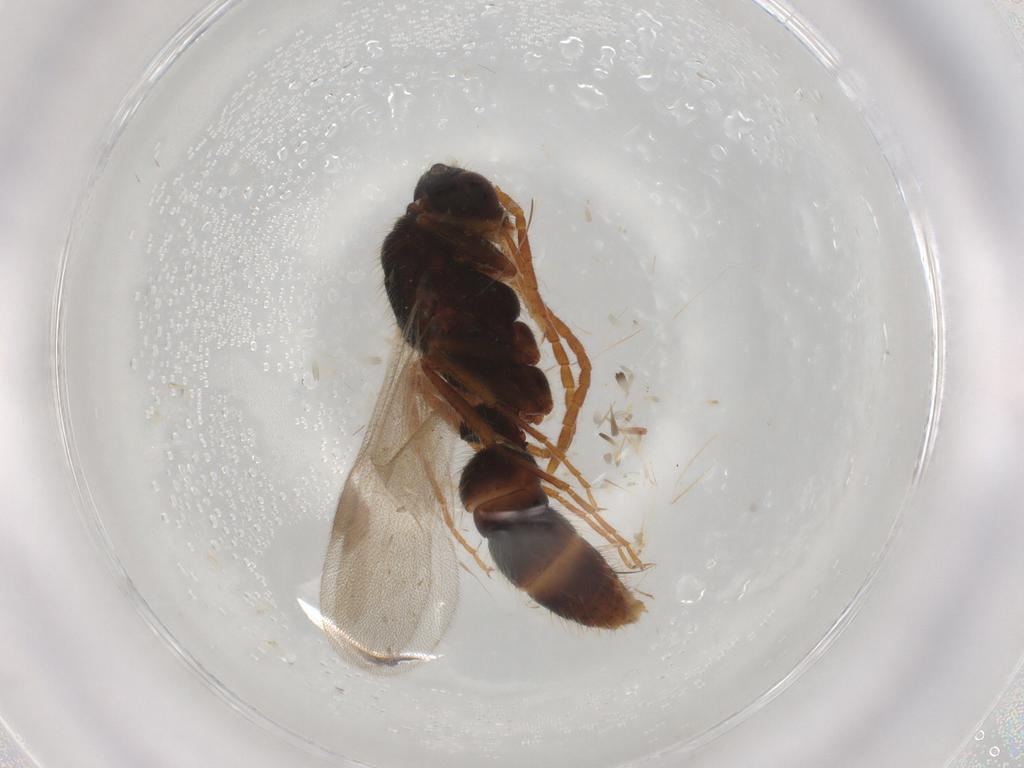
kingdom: Animalia
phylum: Arthropoda
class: Insecta
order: Hymenoptera
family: Formicidae
